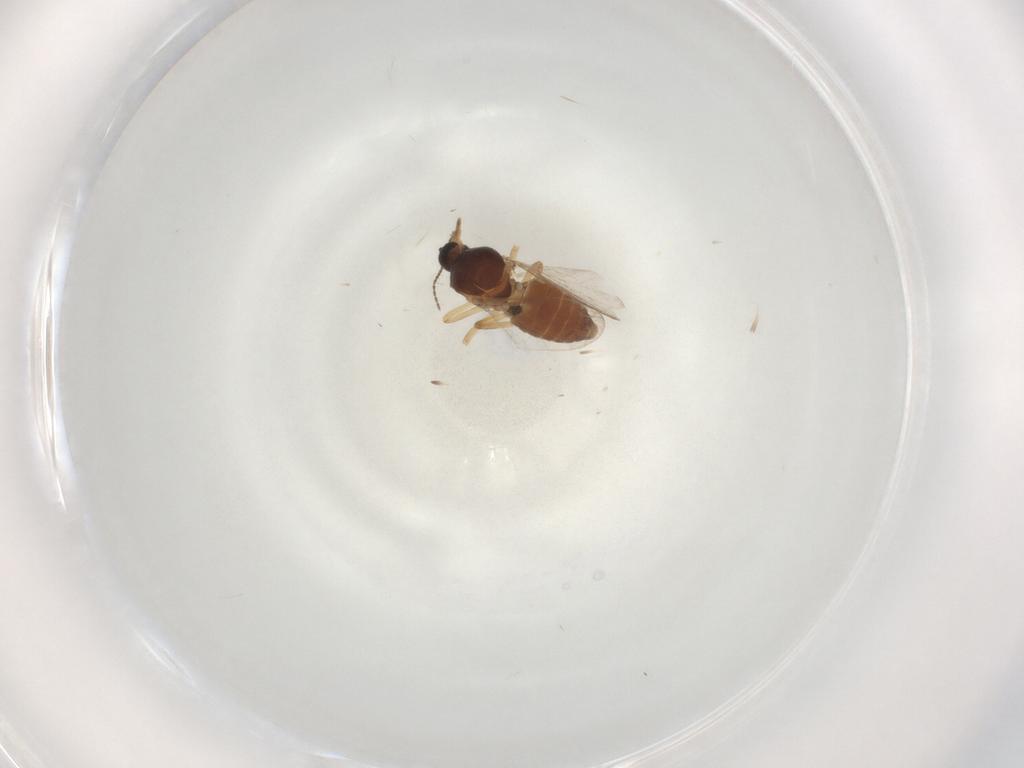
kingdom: Animalia
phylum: Arthropoda
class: Insecta
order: Diptera
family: Ceratopogonidae
